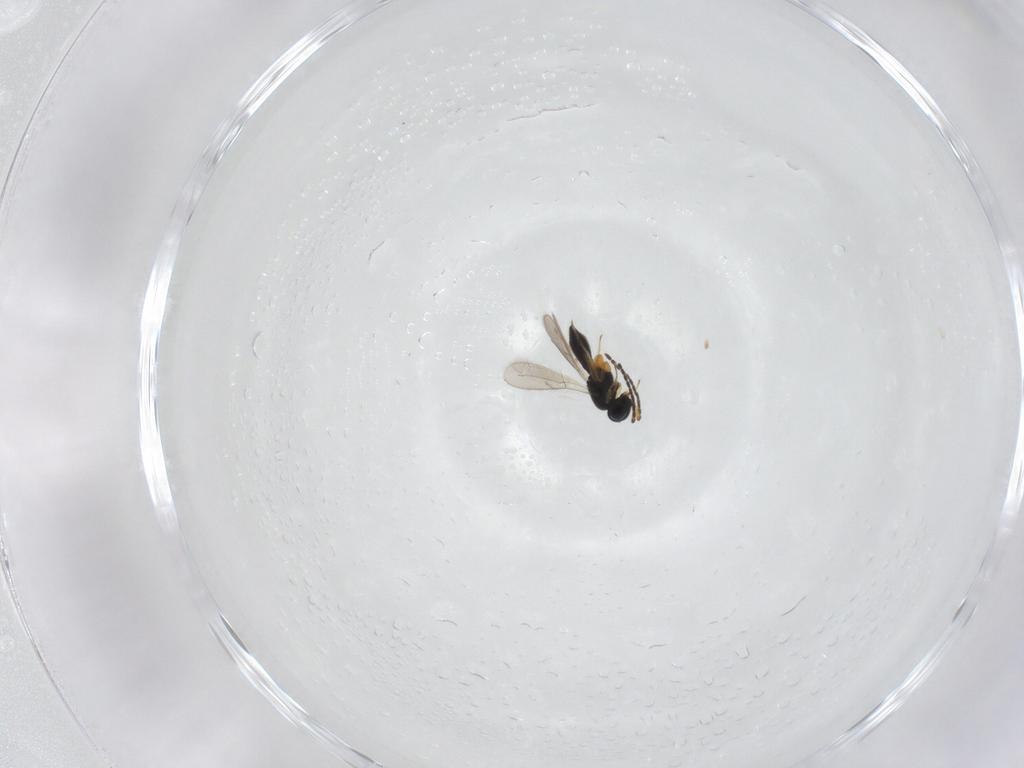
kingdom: Animalia
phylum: Arthropoda
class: Insecta
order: Hymenoptera
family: Scelionidae
